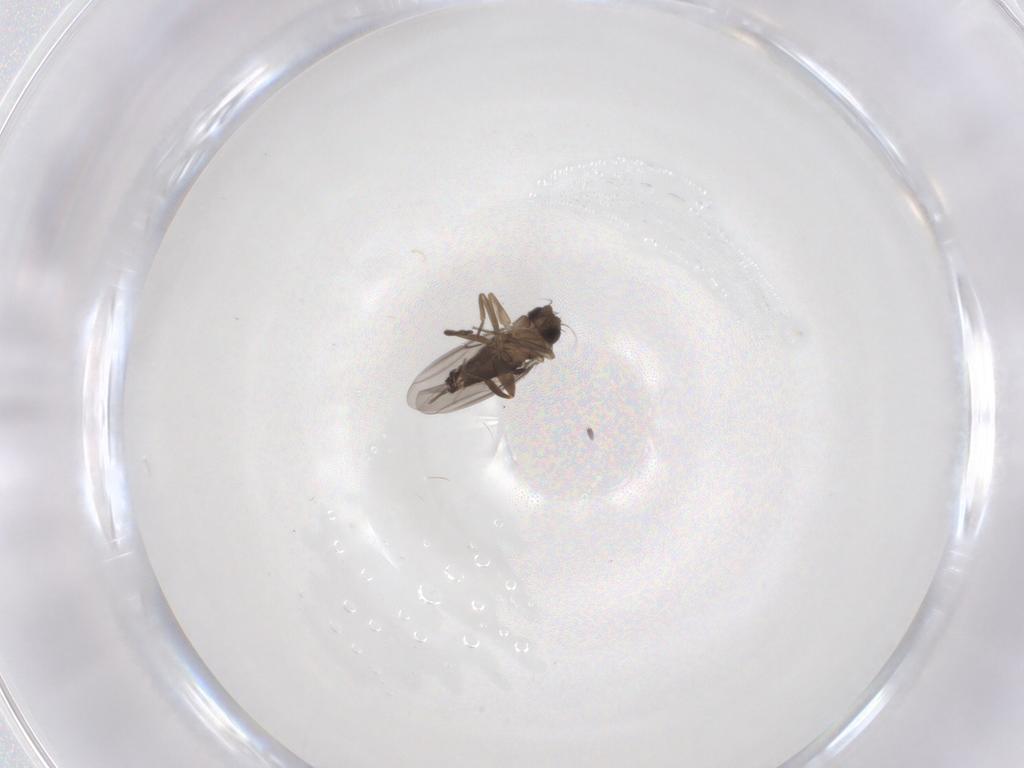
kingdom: Animalia
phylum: Arthropoda
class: Insecta
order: Diptera
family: Phoridae
